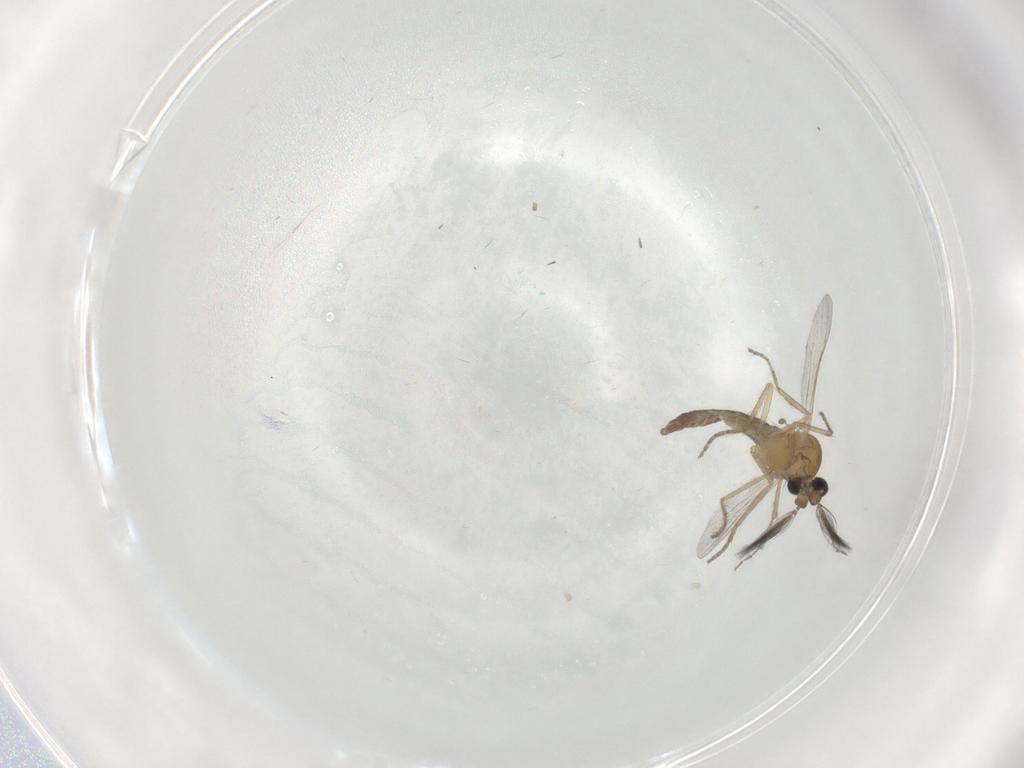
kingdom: Animalia
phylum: Arthropoda
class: Insecta
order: Diptera
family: Ceratopogonidae
